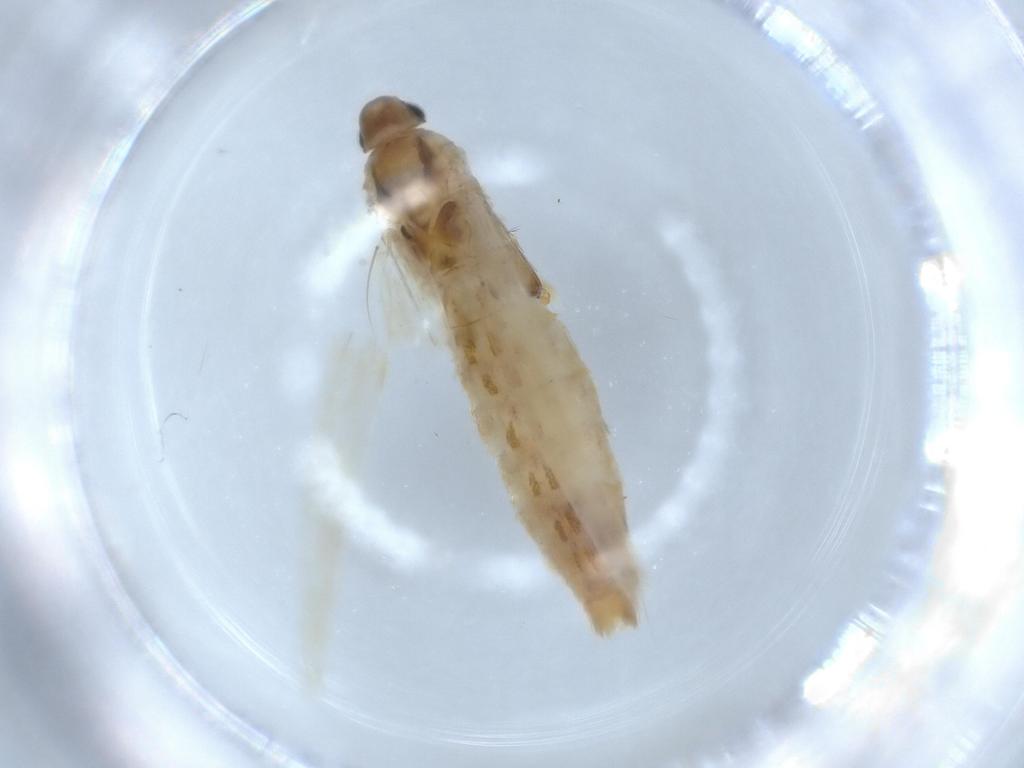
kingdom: Animalia
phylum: Arthropoda
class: Insecta
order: Lepidoptera
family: Coleophoridae
